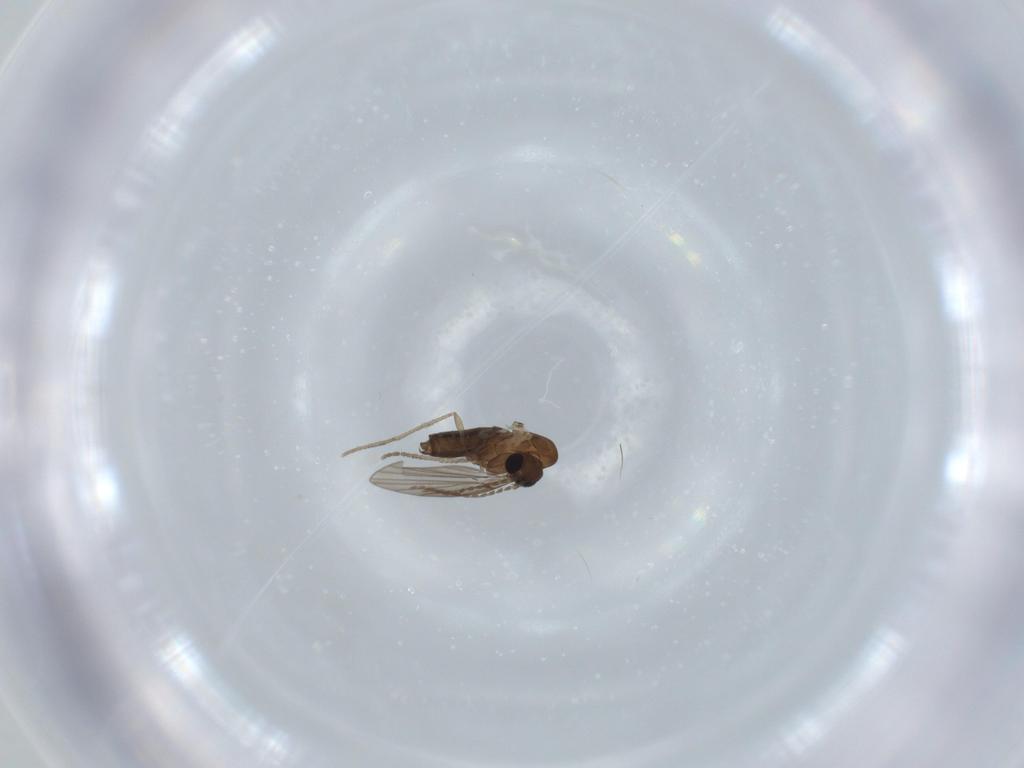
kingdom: Animalia
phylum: Arthropoda
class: Insecta
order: Diptera
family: Psychodidae
